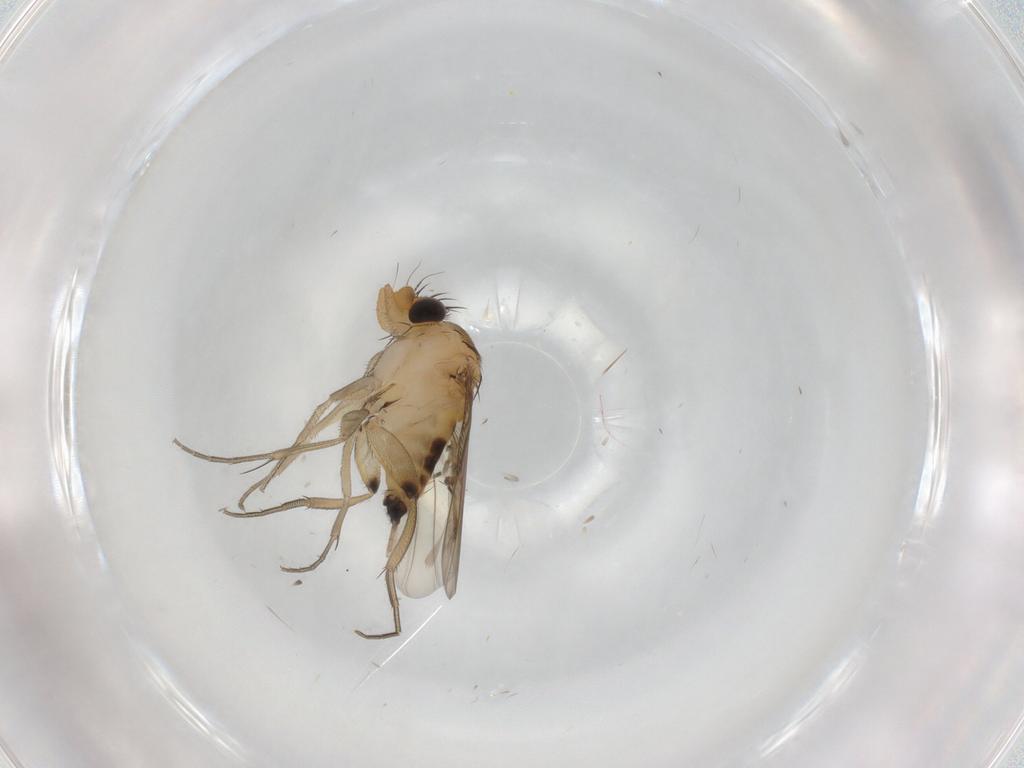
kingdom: Animalia
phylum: Arthropoda
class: Insecta
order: Diptera
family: Phoridae
